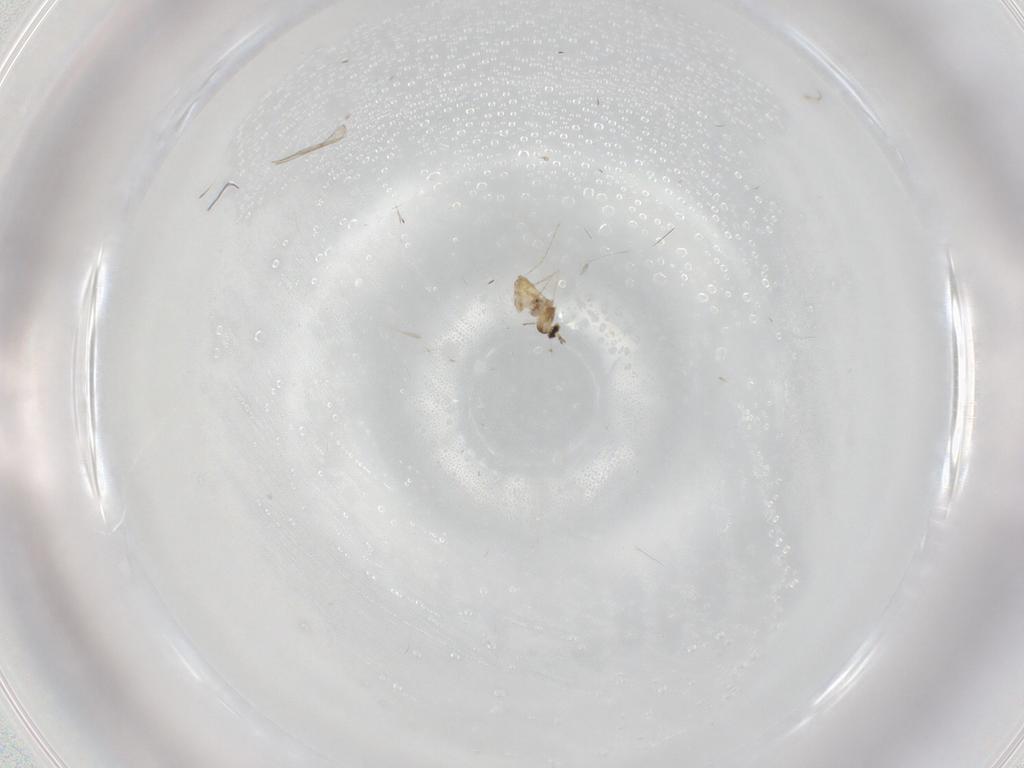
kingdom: Animalia
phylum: Arthropoda
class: Insecta
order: Diptera
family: Cecidomyiidae
